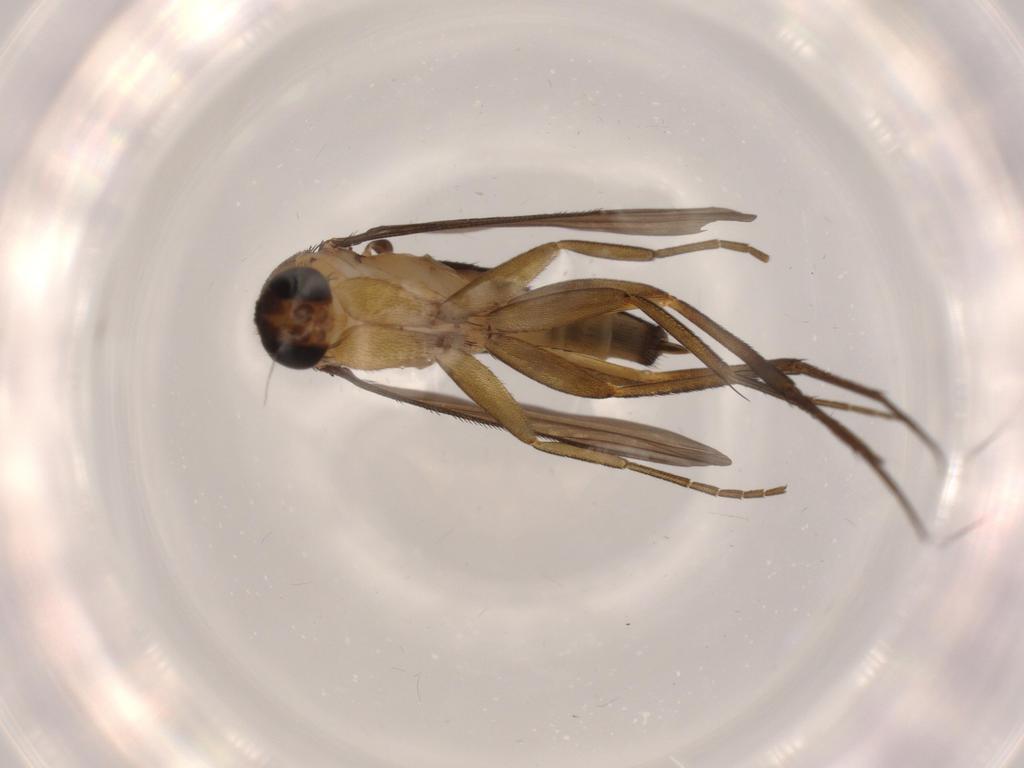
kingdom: Animalia
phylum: Arthropoda
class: Insecta
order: Diptera
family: Phoridae
